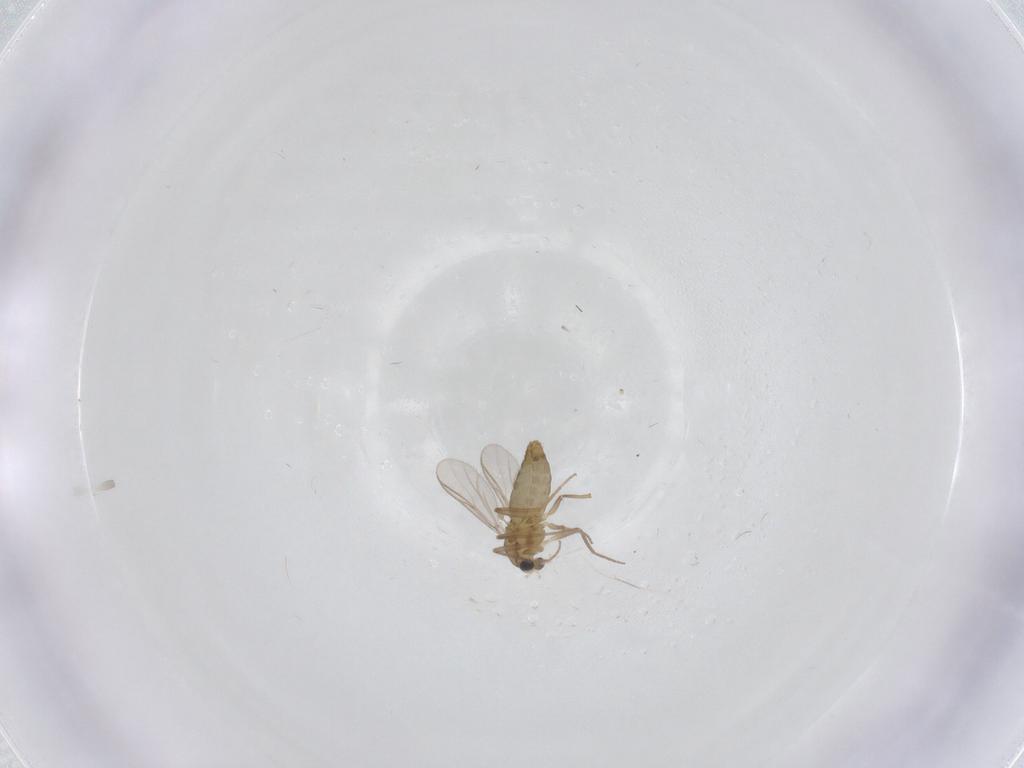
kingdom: Animalia
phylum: Arthropoda
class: Insecta
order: Diptera
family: Chironomidae
